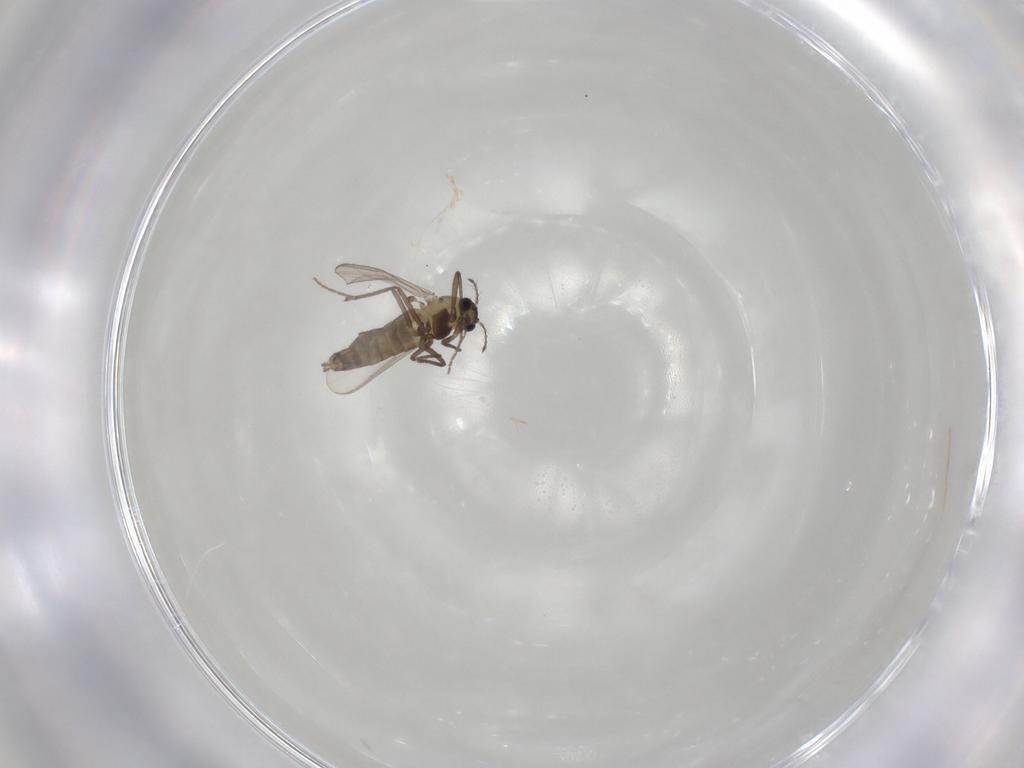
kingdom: Animalia
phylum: Arthropoda
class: Insecta
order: Diptera
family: Chironomidae
